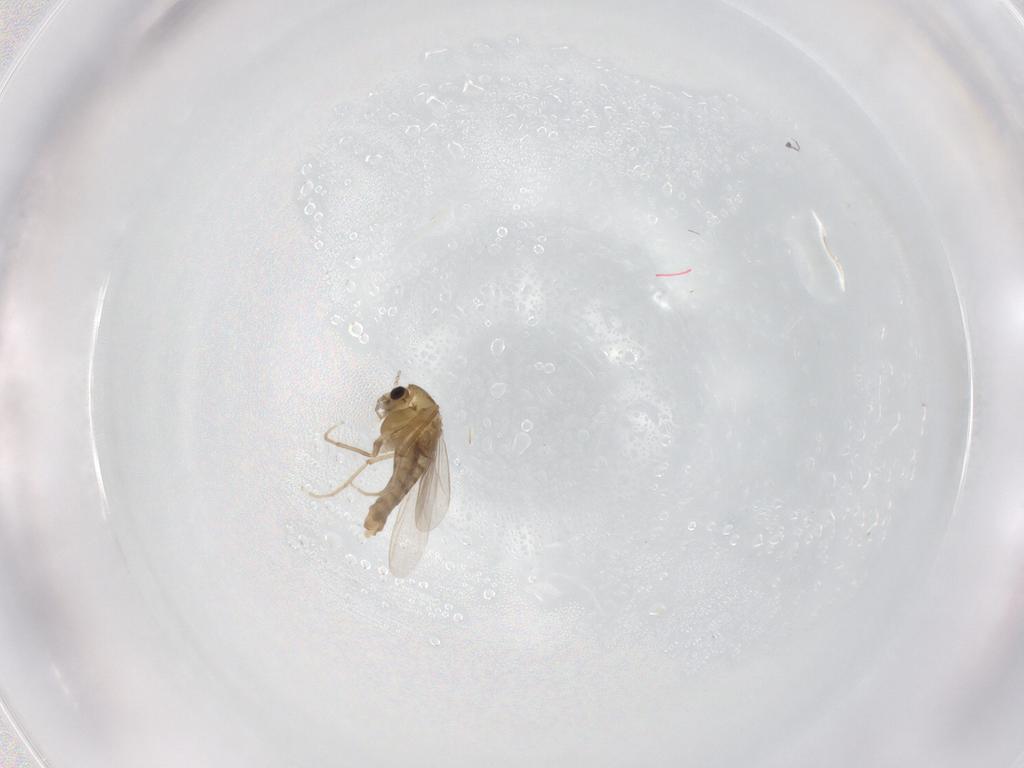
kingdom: Animalia
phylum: Arthropoda
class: Insecta
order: Diptera
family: Chironomidae
